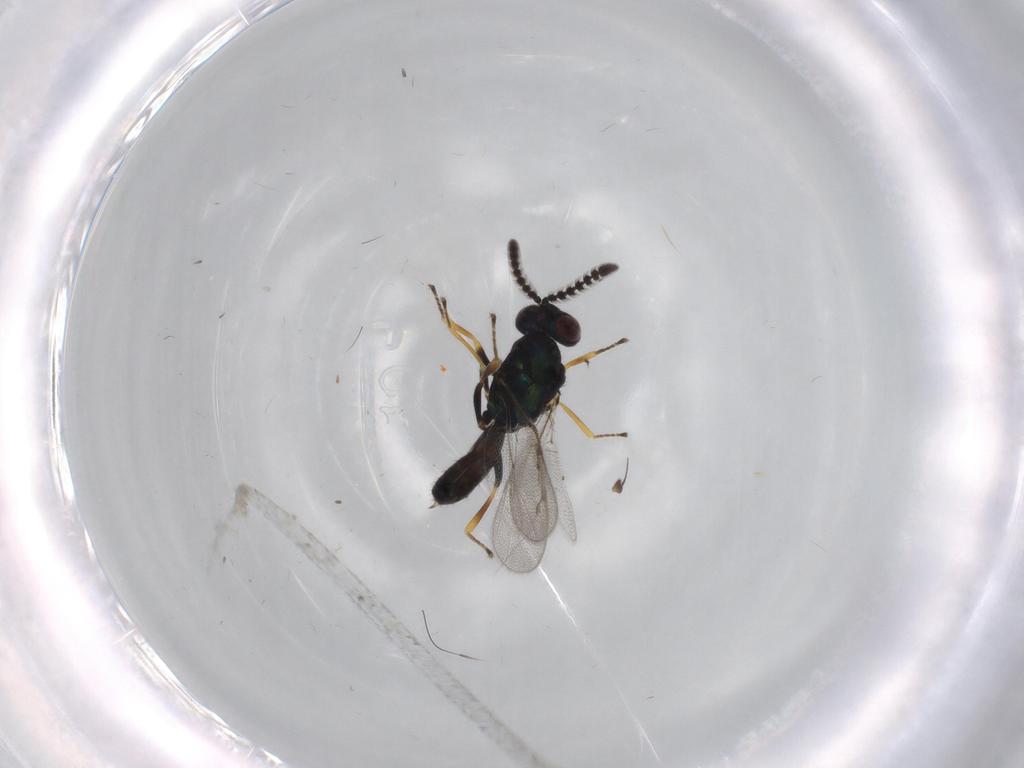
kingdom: Animalia
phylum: Arthropoda
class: Insecta
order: Hymenoptera
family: Pteromalidae
